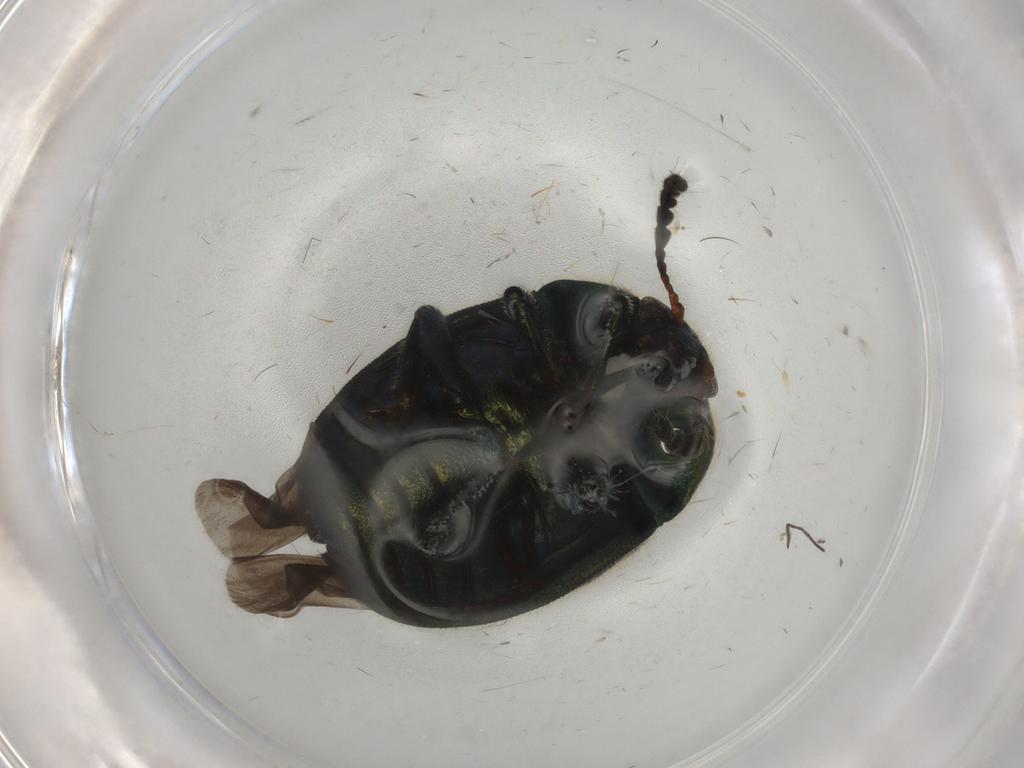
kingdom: Animalia
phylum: Arthropoda
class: Insecta
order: Coleoptera
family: Chrysomelidae
